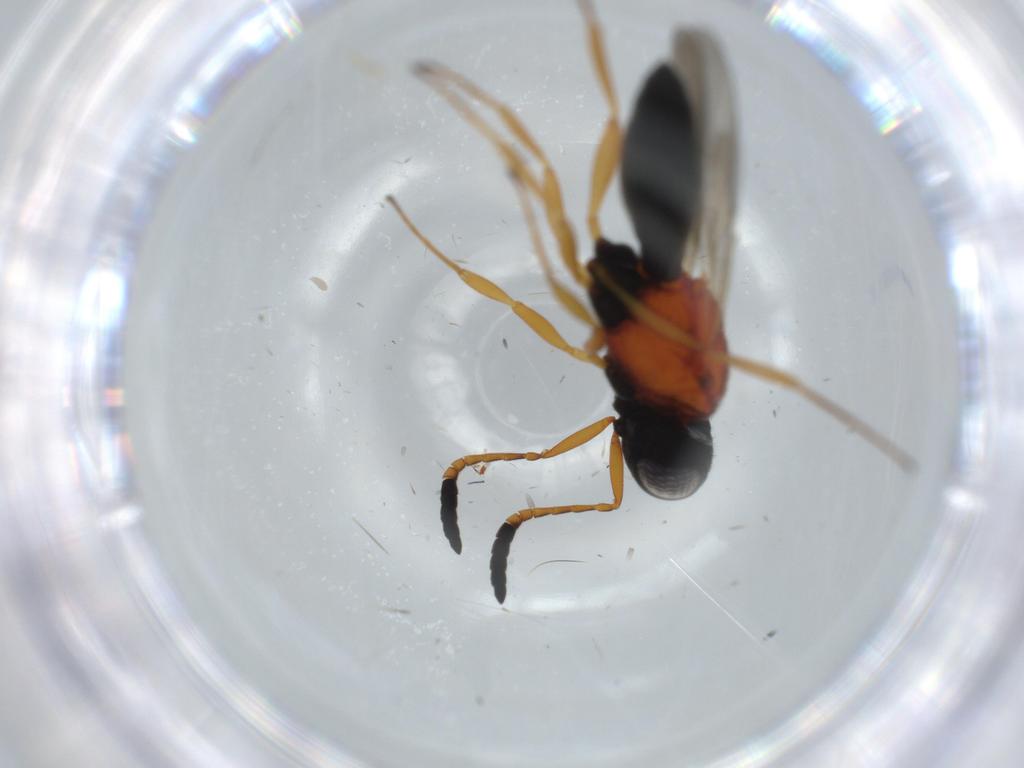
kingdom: Animalia
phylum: Arthropoda
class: Insecta
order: Hymenoptera
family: Scelionidae
